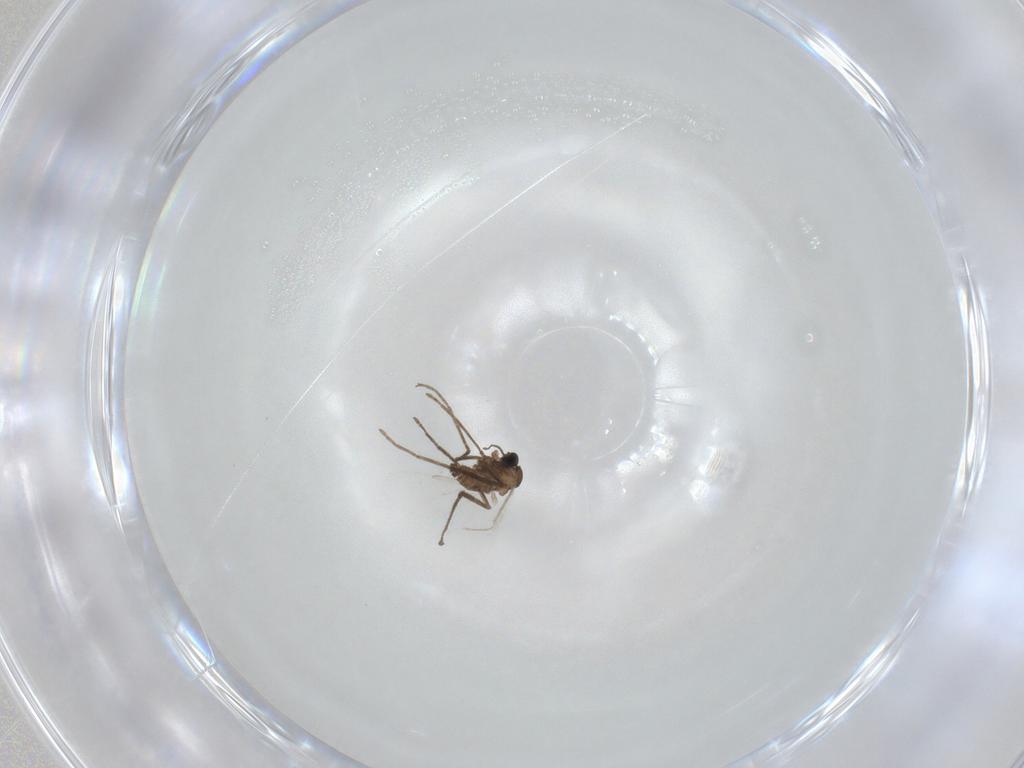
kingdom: Animalia
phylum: Arthropoda
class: Insecta
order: Diptera
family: Cecidomyiidae
